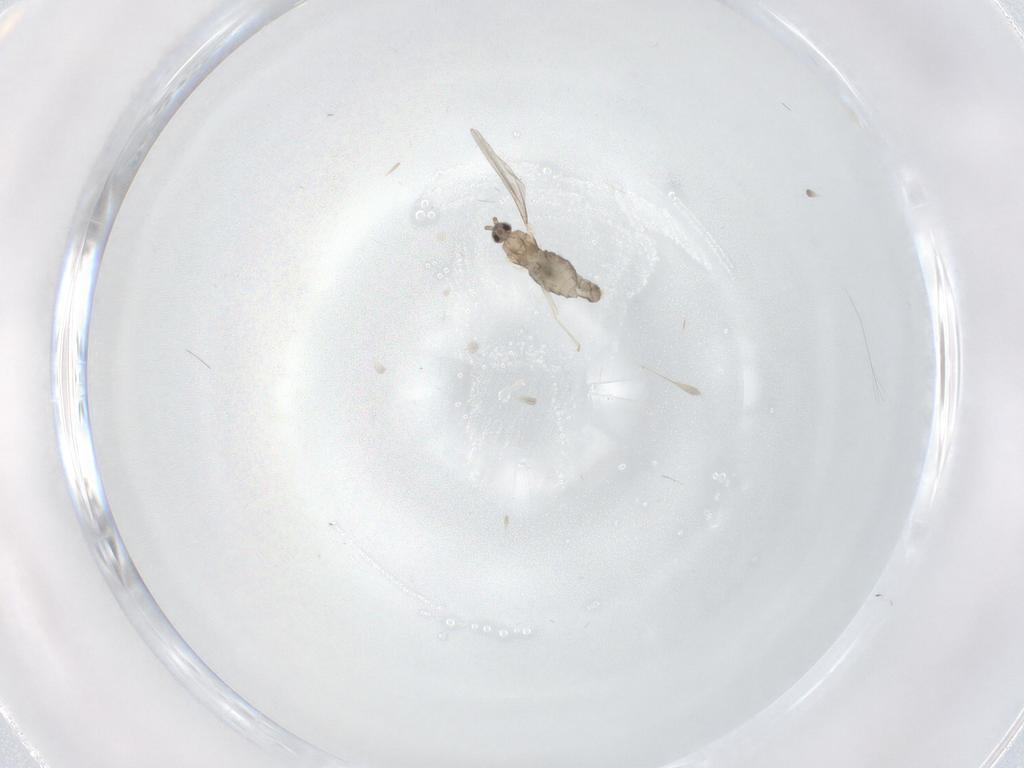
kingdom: Animalia
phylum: Arthropoda
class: Insecta
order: Diptera
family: Cecidomyiidae
